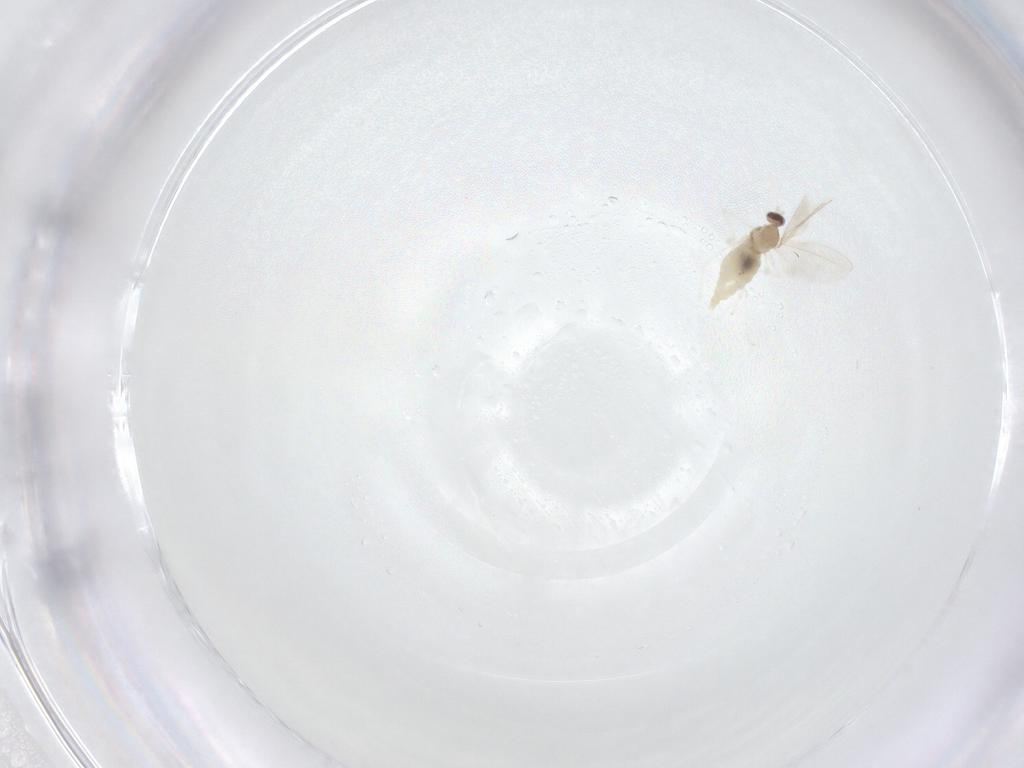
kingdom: Animalia
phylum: Arthropoda
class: Insecta
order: Diptera
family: Cecidomyiidae
